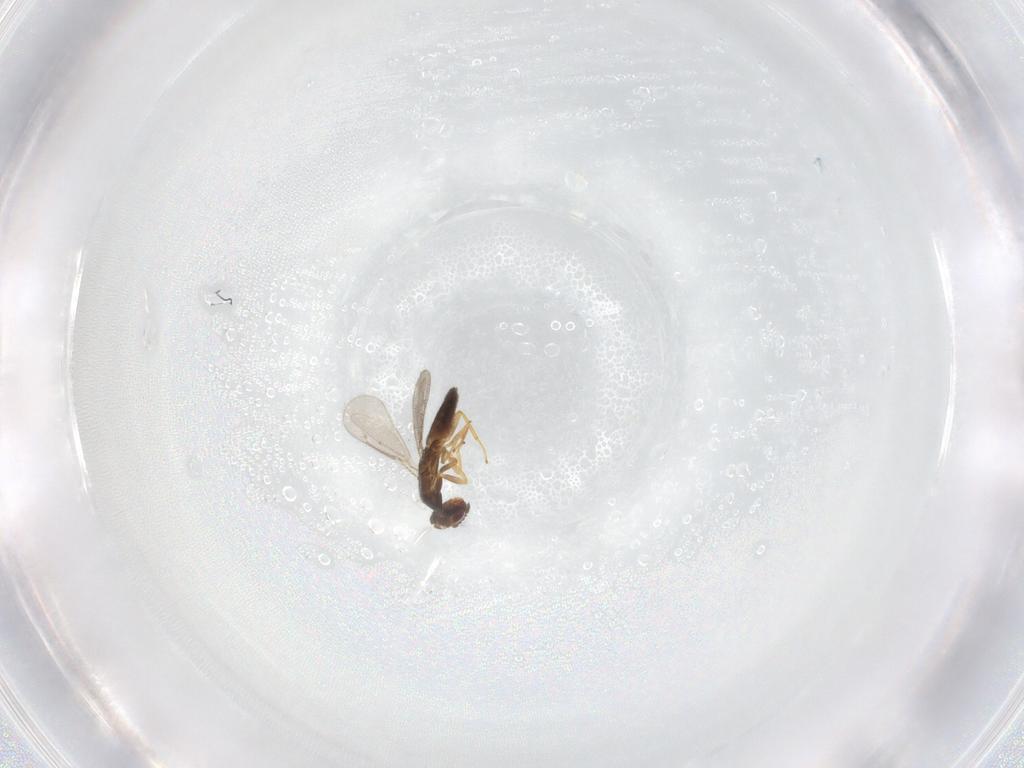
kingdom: Animalia
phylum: Arthropoda
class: Insecta
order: Hymenoptera
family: Eulophidae
